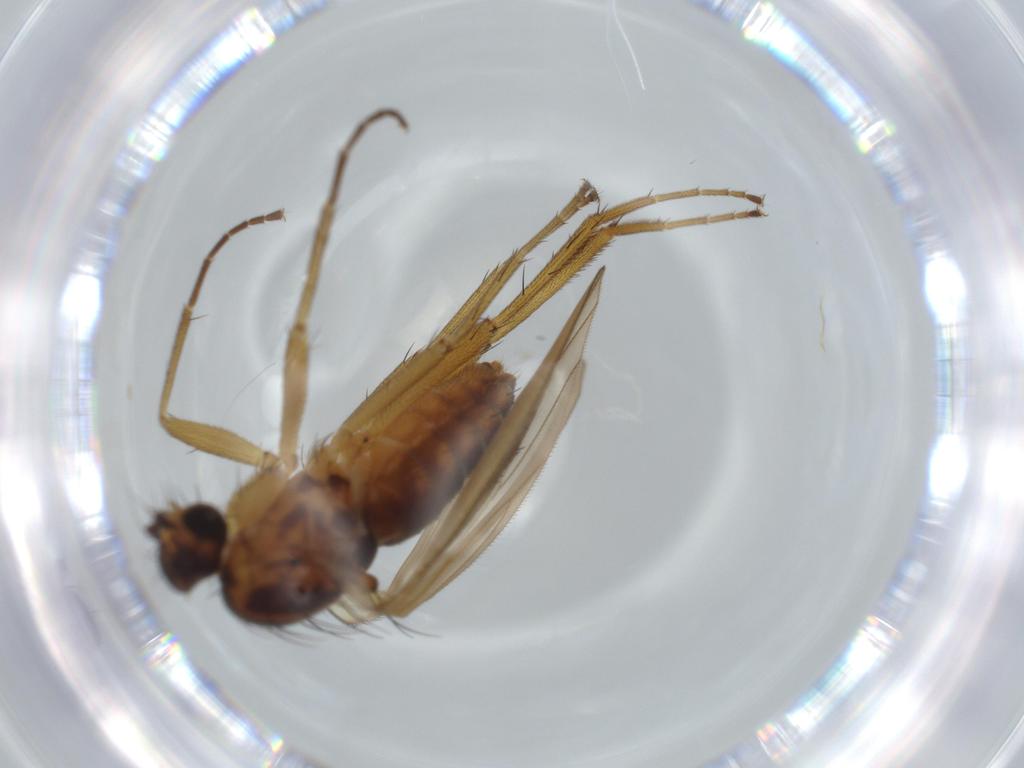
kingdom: Animalia
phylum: Arthropoda
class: Insecta
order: Diptera
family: Lonchopteridae
